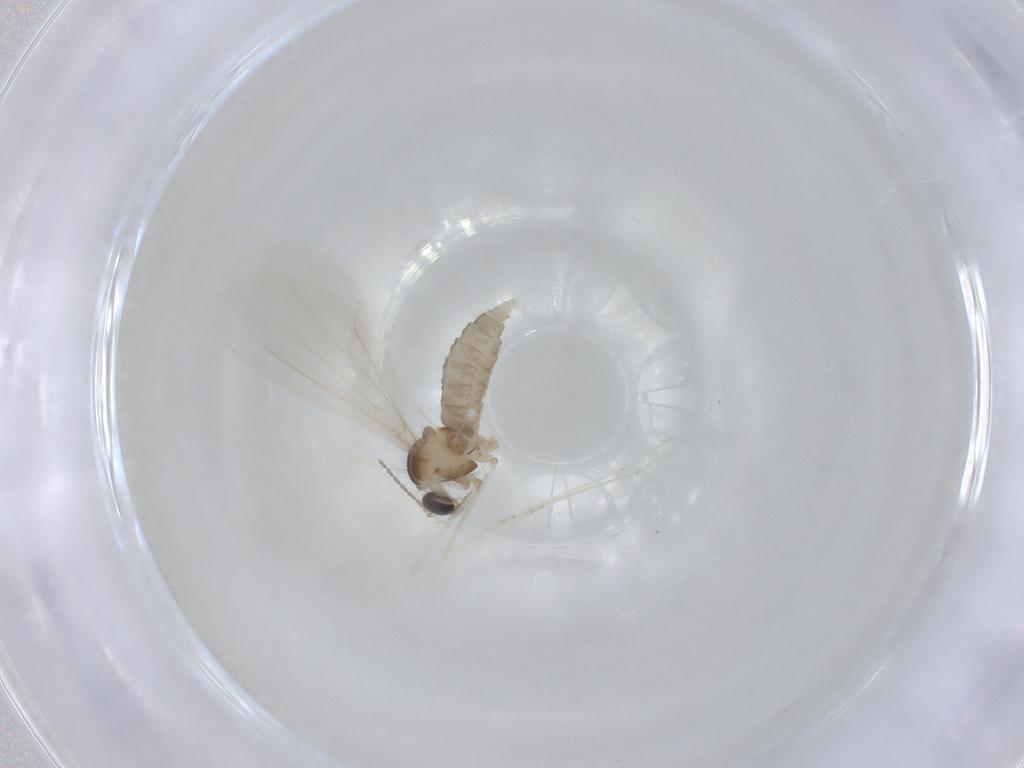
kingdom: Animalia
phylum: Arthropoda
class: Insecta
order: Diptera
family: Cecidomyiidae
